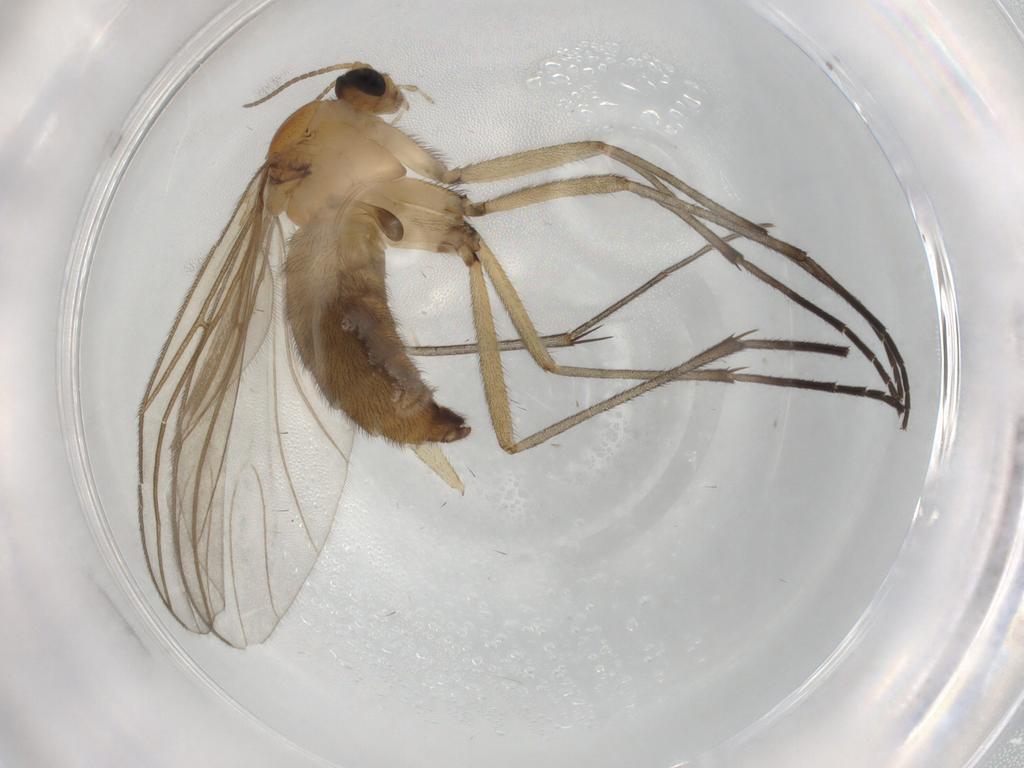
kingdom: Animalia
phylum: Arthropoda
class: Insecta
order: Diptera
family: Sciaridae
